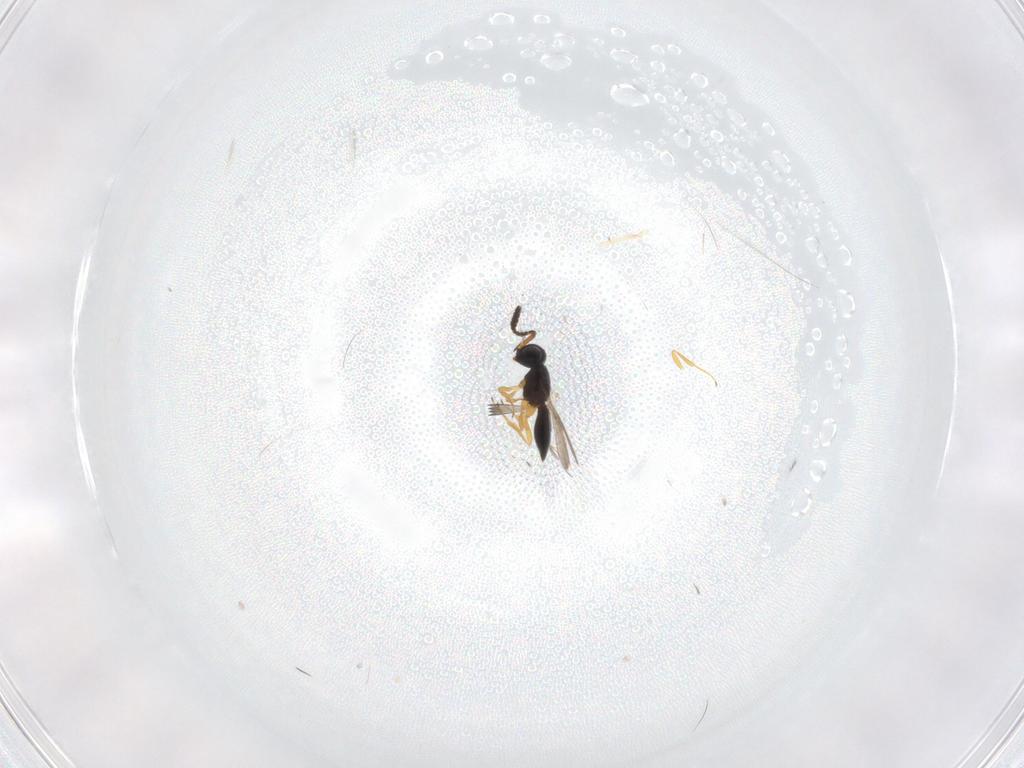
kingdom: Animalia
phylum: Arthropoda
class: Insecta
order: Hymenoptera
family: Scelionidae
